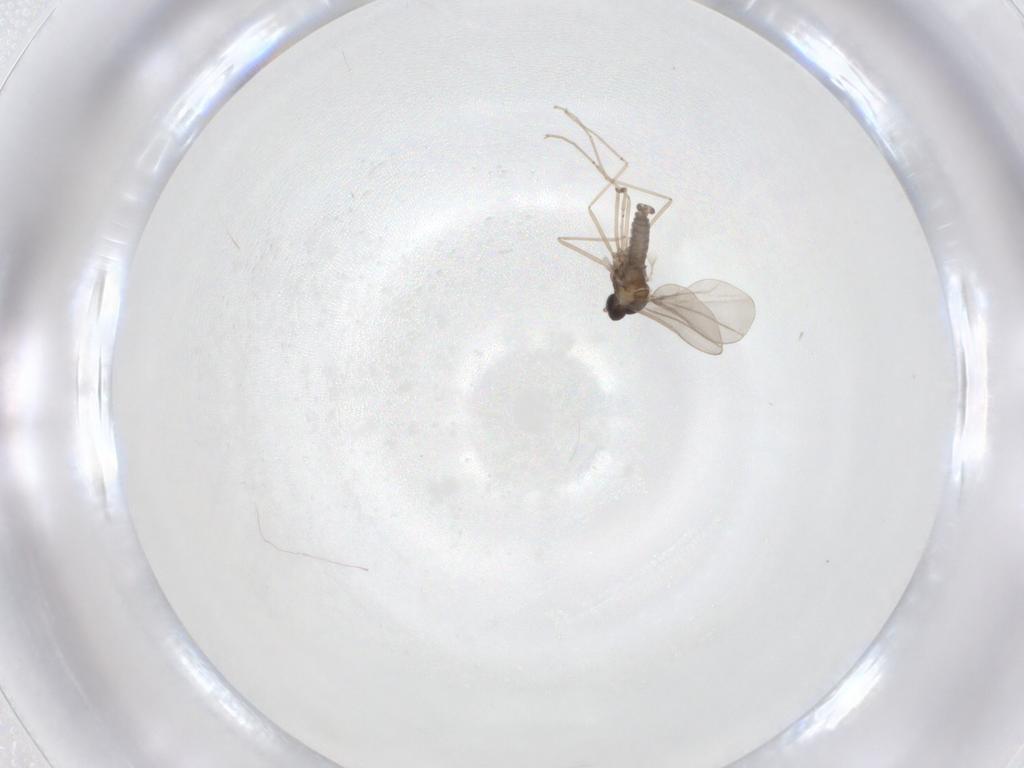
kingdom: Animalia
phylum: Arthropoda
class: Insecta
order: Diptera
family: Cecidomyiidae
